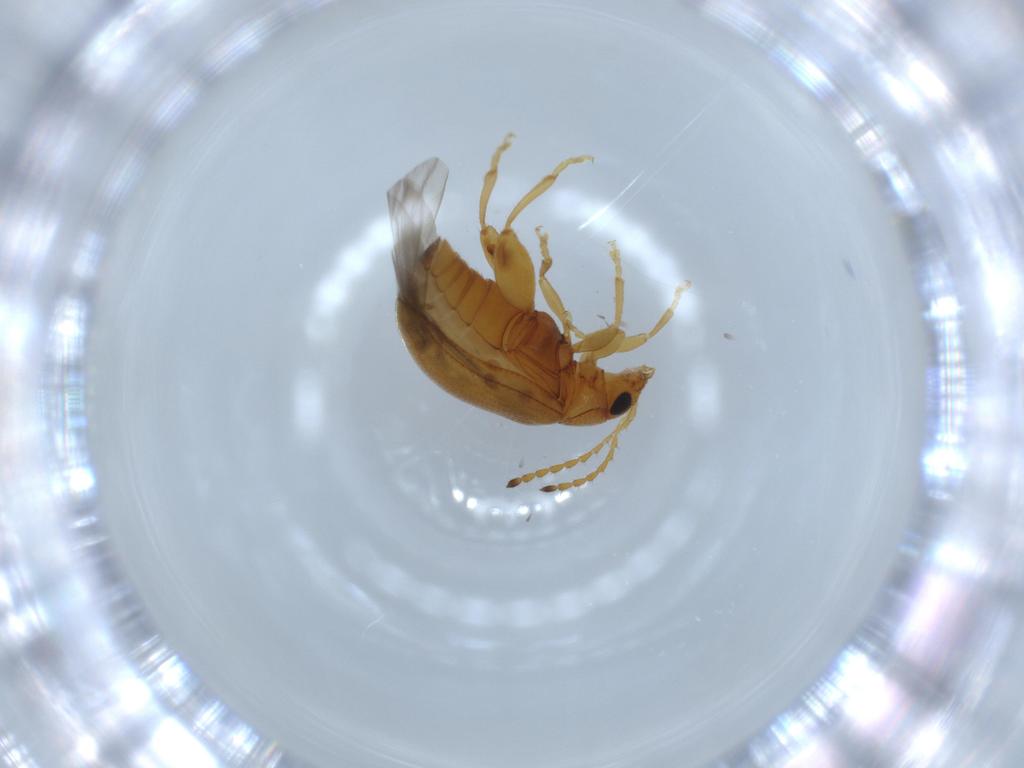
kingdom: Animalia
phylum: Arthropoda
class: Insecta
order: Coleoptera
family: Chrysomelidae
